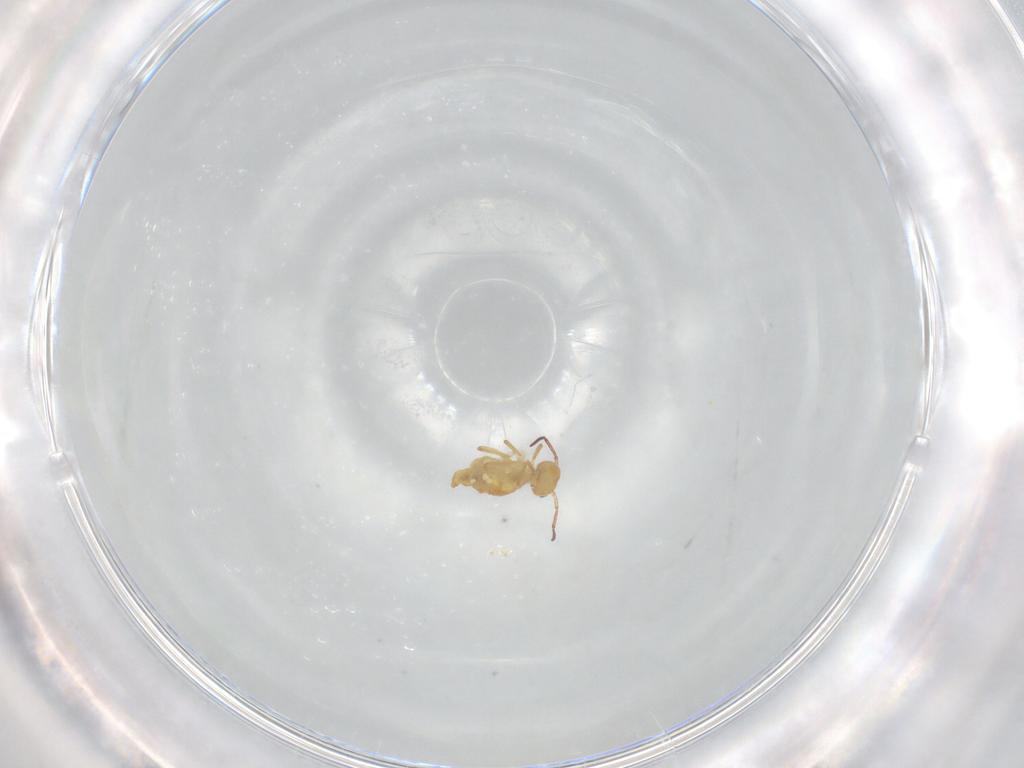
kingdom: Animalia
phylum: Arthropoda
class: Collembola
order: Symphypleona
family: Bourletiellidae
